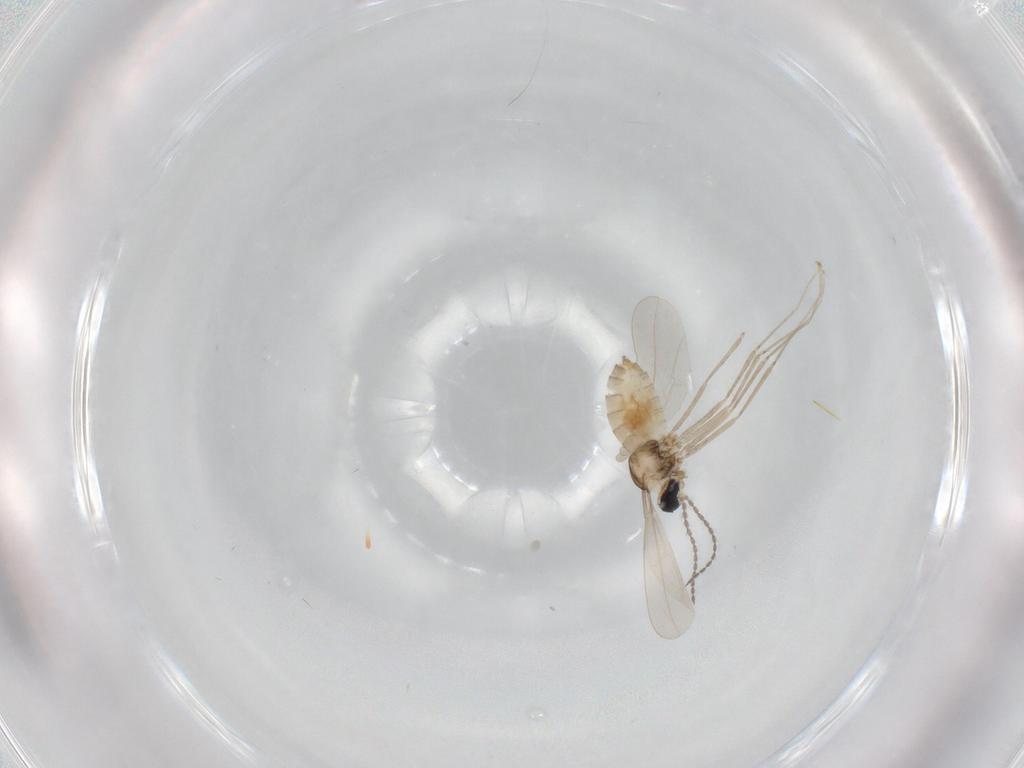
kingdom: Animalia
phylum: Arthropoda
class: Insecta
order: Diptera
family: Cecidomyiidae
